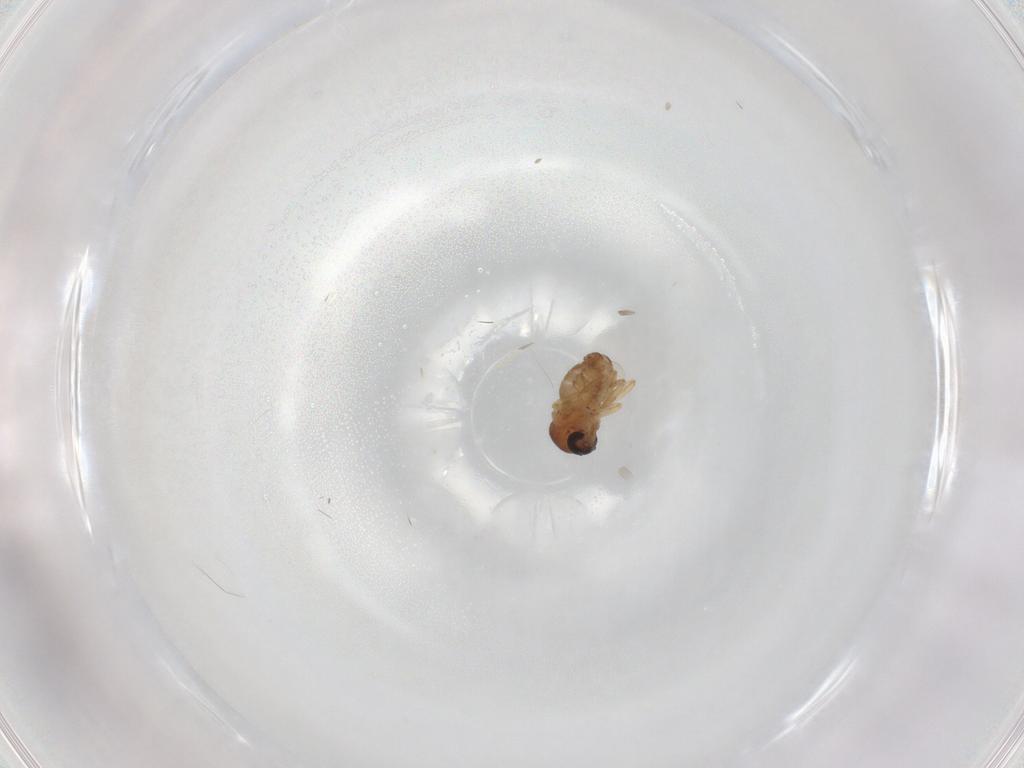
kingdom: Animalia
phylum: Arthropoda
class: Insecta
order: Diptera
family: Ceratopogonidae
